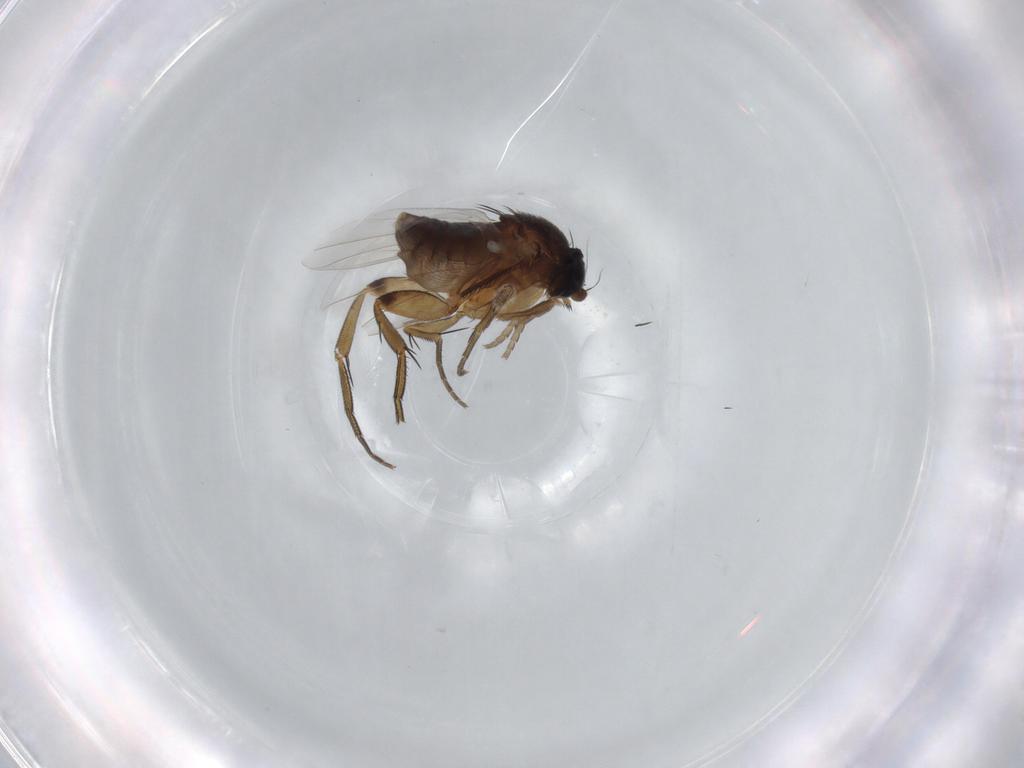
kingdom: Animalia
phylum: Arthropoda
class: Insecta
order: Diptera
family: Phoridae
